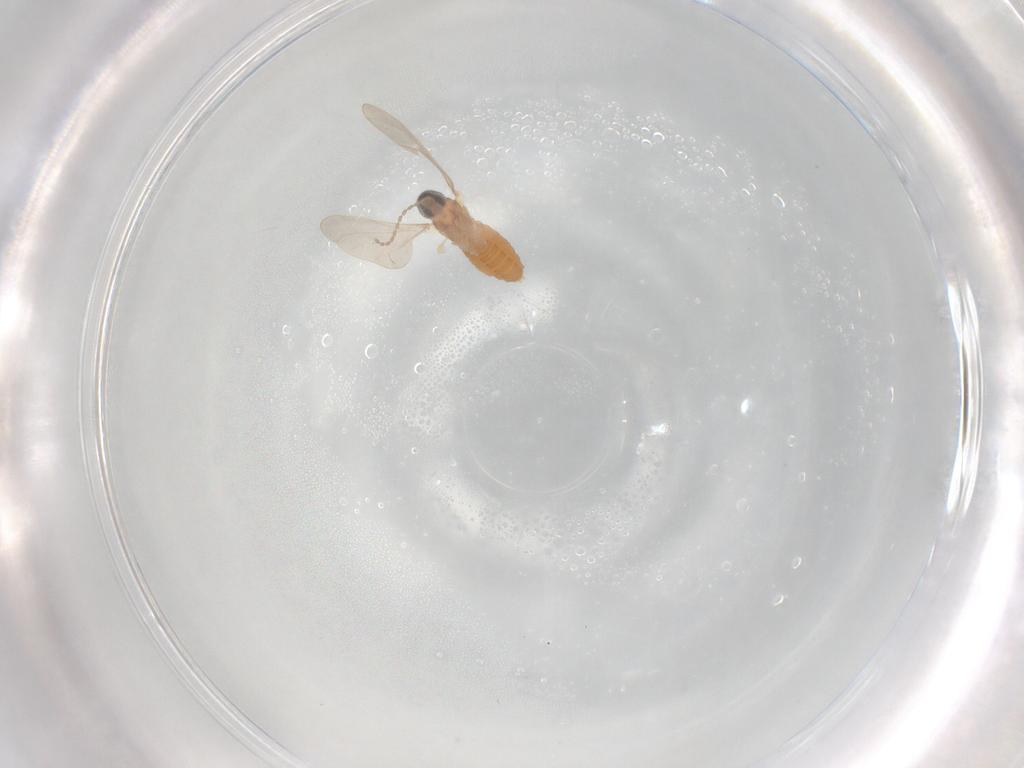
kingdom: Animalia
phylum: Arthropoda
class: Insecta
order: Diptera
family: Cecidomyiidae
